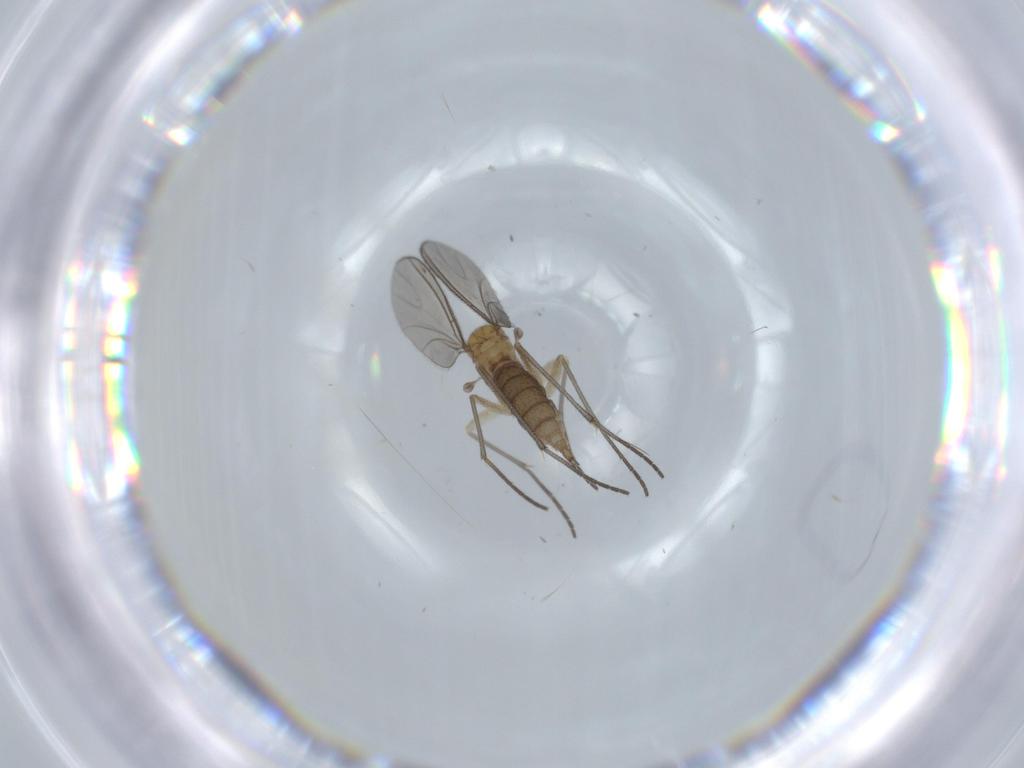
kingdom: Animalia
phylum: Arthropoda
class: Insecta
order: Diptera
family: Sciaridae
